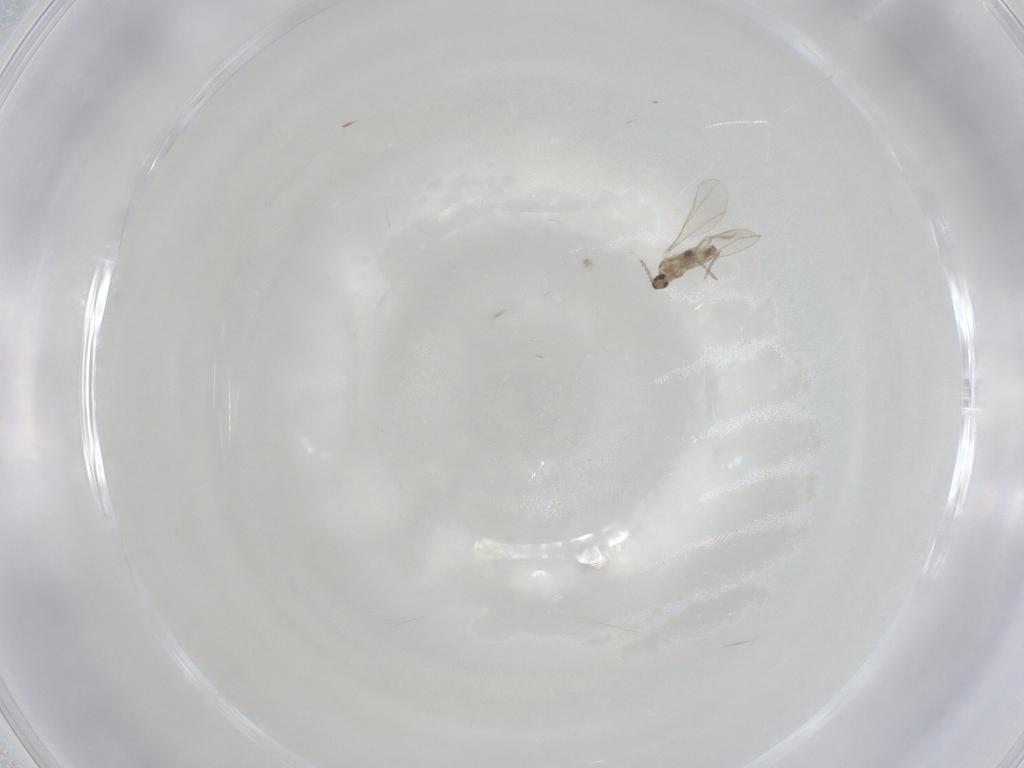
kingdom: Animalia
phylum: Arthropoda
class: Insecta
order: Diptera
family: Cecidomyiidae
